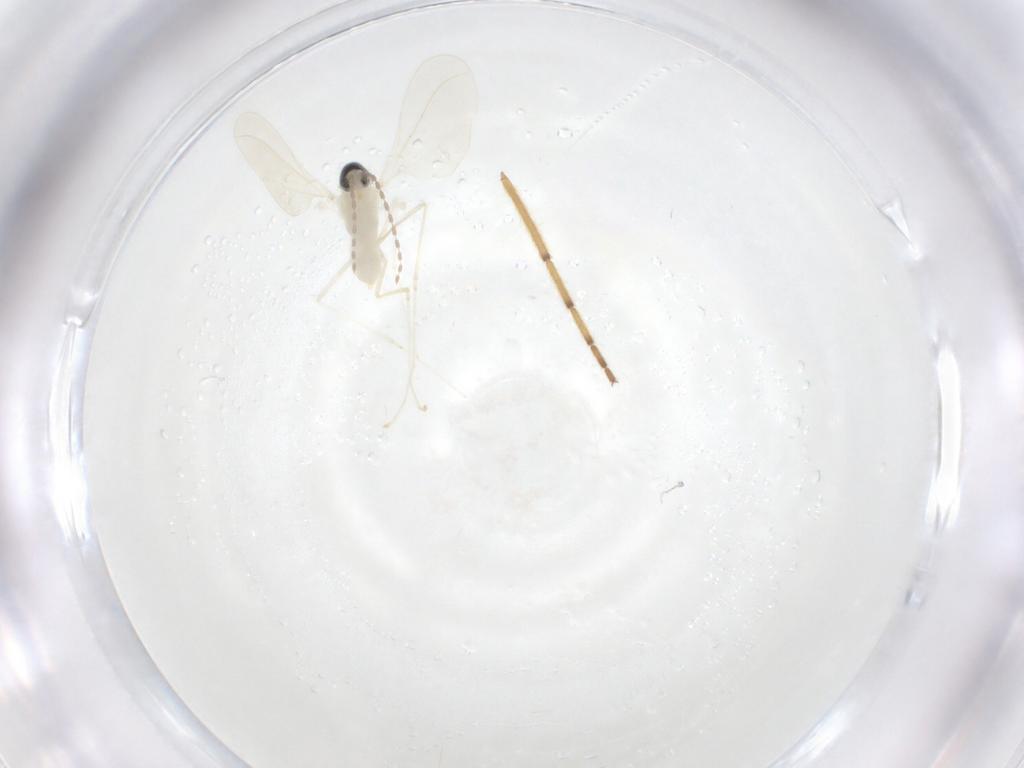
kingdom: Animalia
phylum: Arthropoda
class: Insecta
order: Diptera
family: Cecidomyiidae
